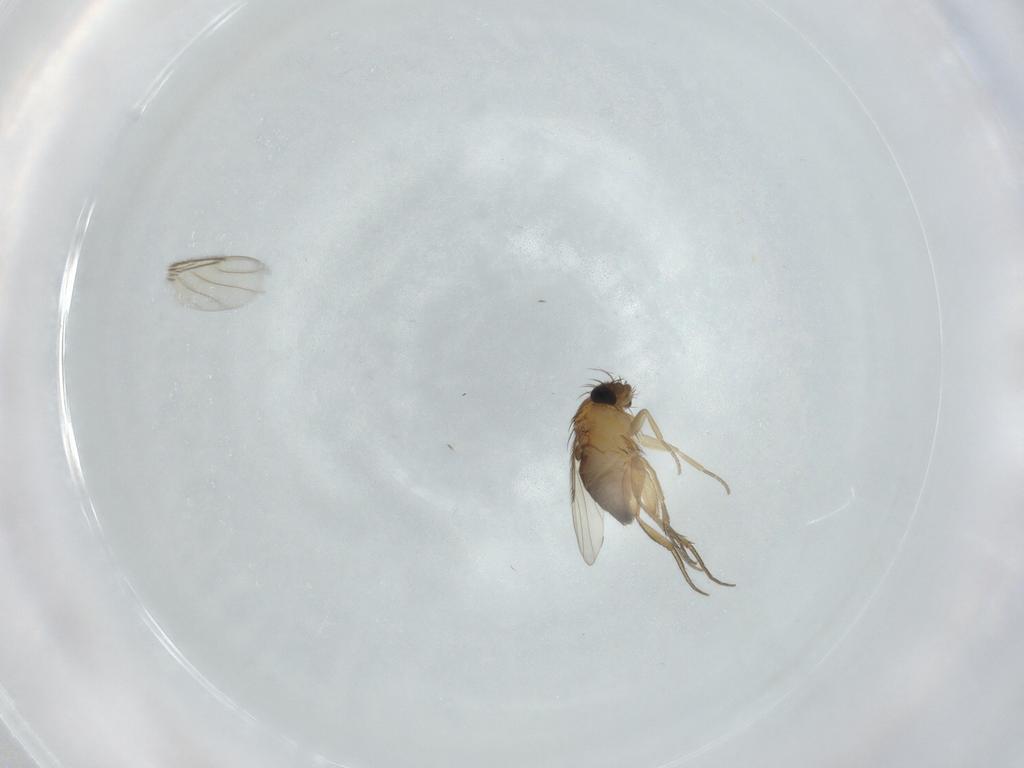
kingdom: Animalia
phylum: Arthropoda
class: Insecta
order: Diptera
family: Phoridae
